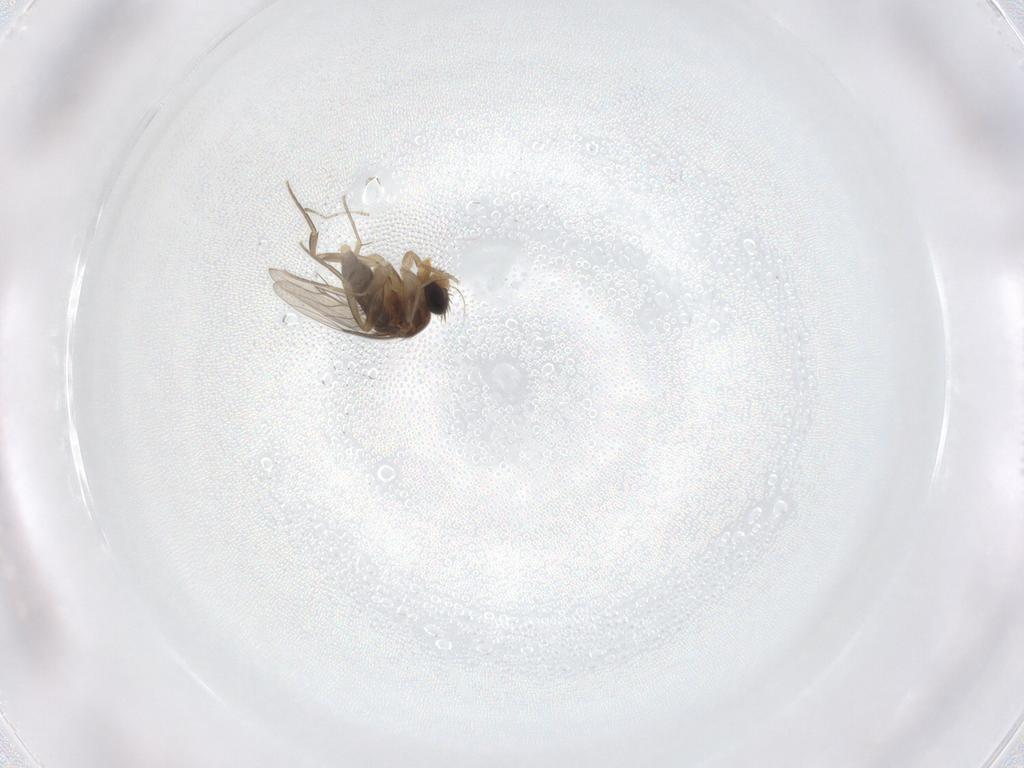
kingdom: Animalia
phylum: Arthropoda
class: Insecta
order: Diptera
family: Phoridae
